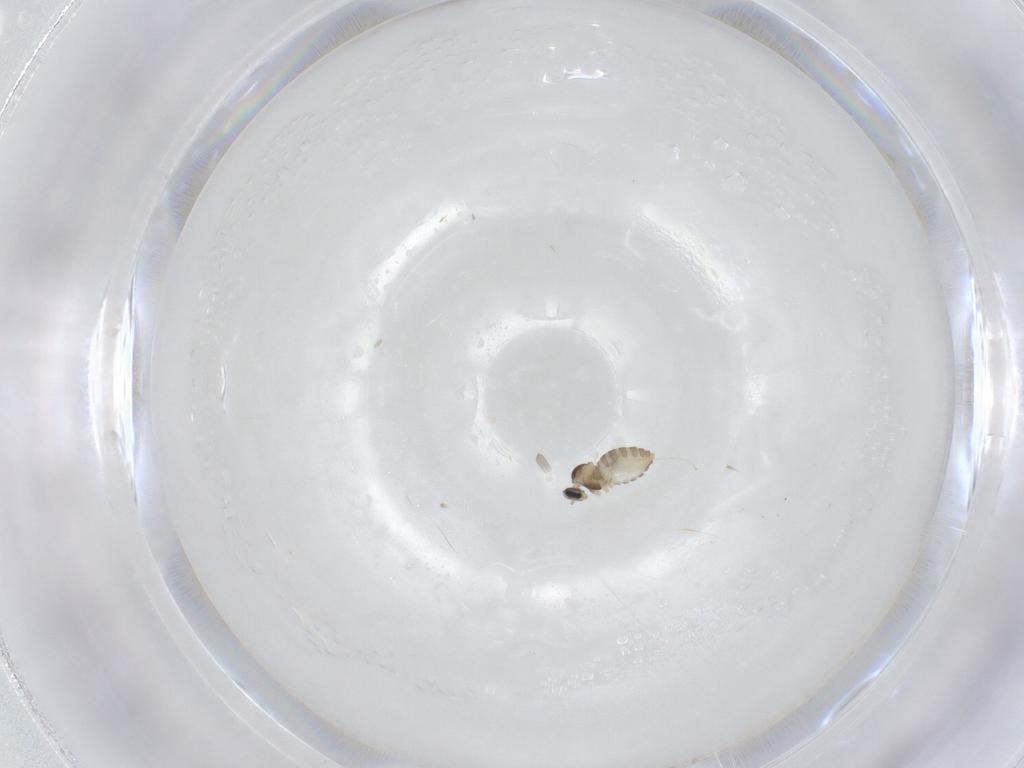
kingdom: Animalia
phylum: Arthropoda
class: Insecta
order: Diptera
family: Cecidomyiidae
